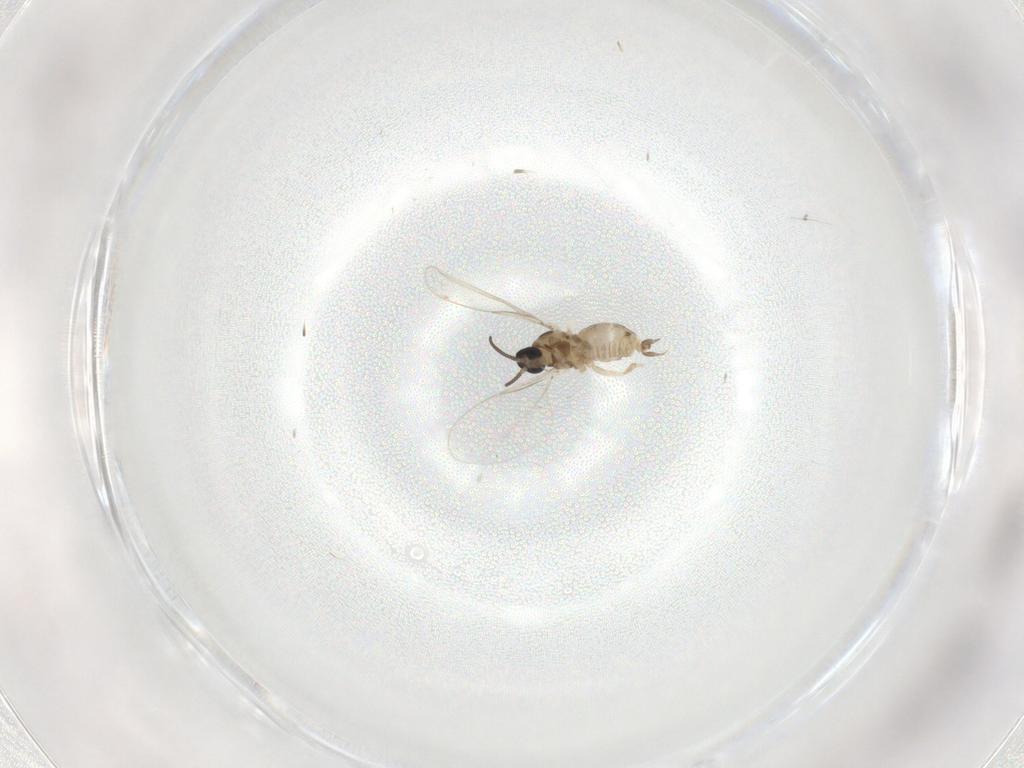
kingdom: Animalia
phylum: Arthropoda
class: Insecta
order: Diptera
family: Cecidomyiidae
